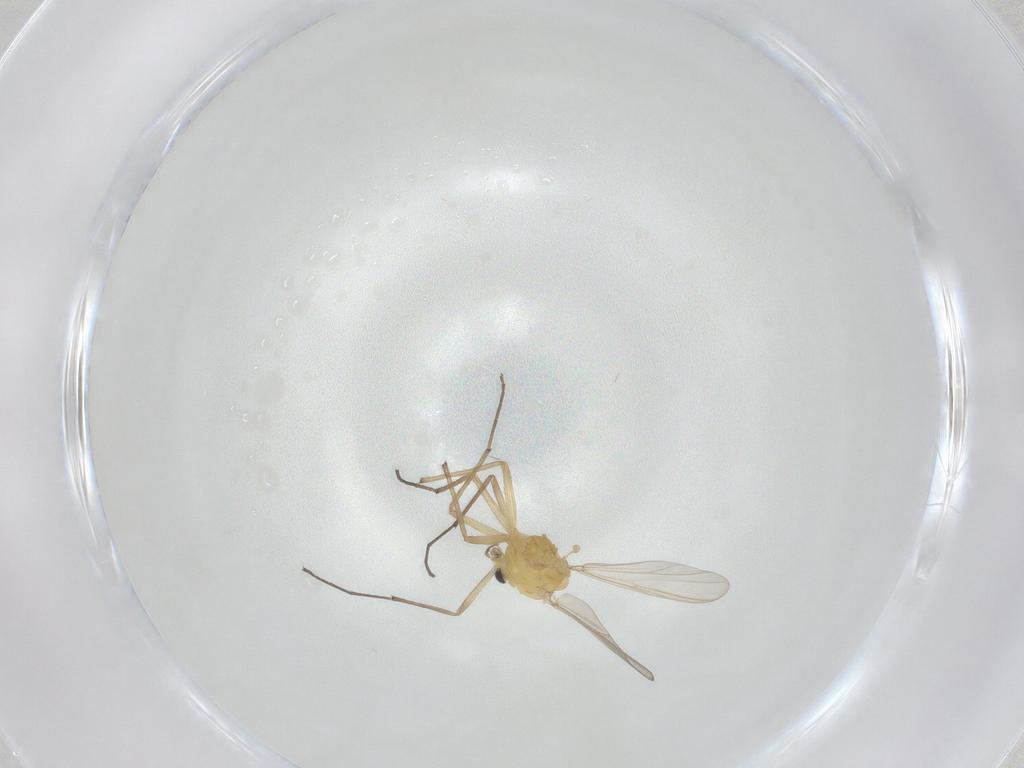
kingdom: Animalia
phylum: Arthropoda
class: Insecta
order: Diptera
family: Chironomidae
